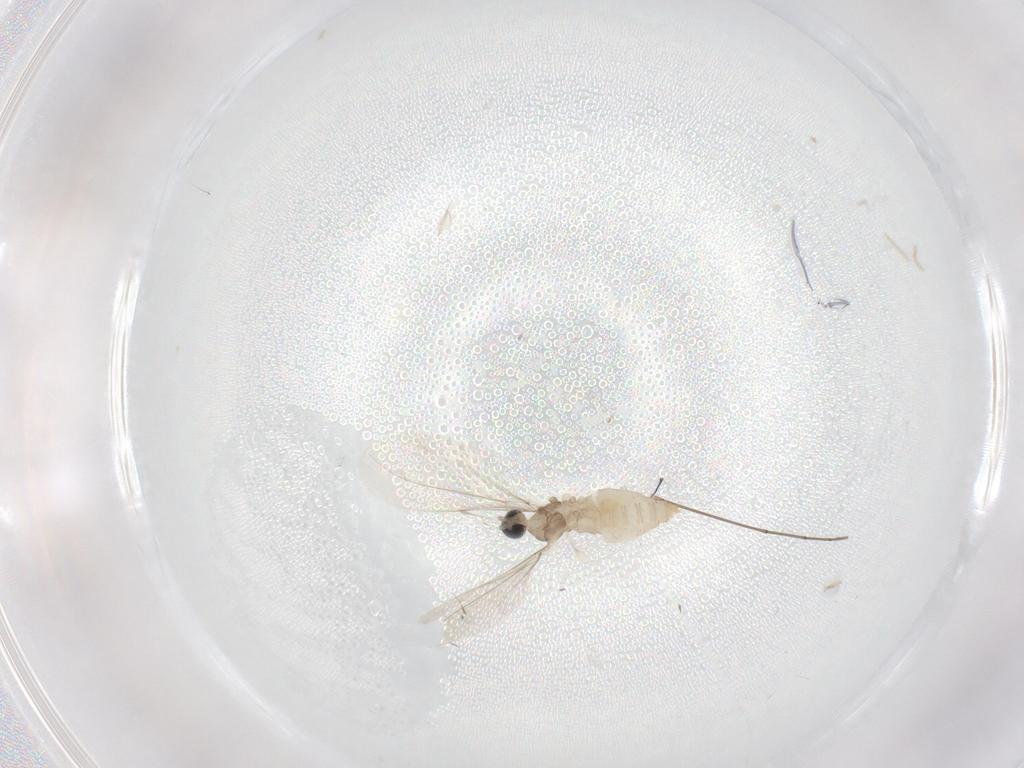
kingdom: Animalia
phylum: Arthropoda
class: Insecta
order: Diptera
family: Cecidomyiidae
